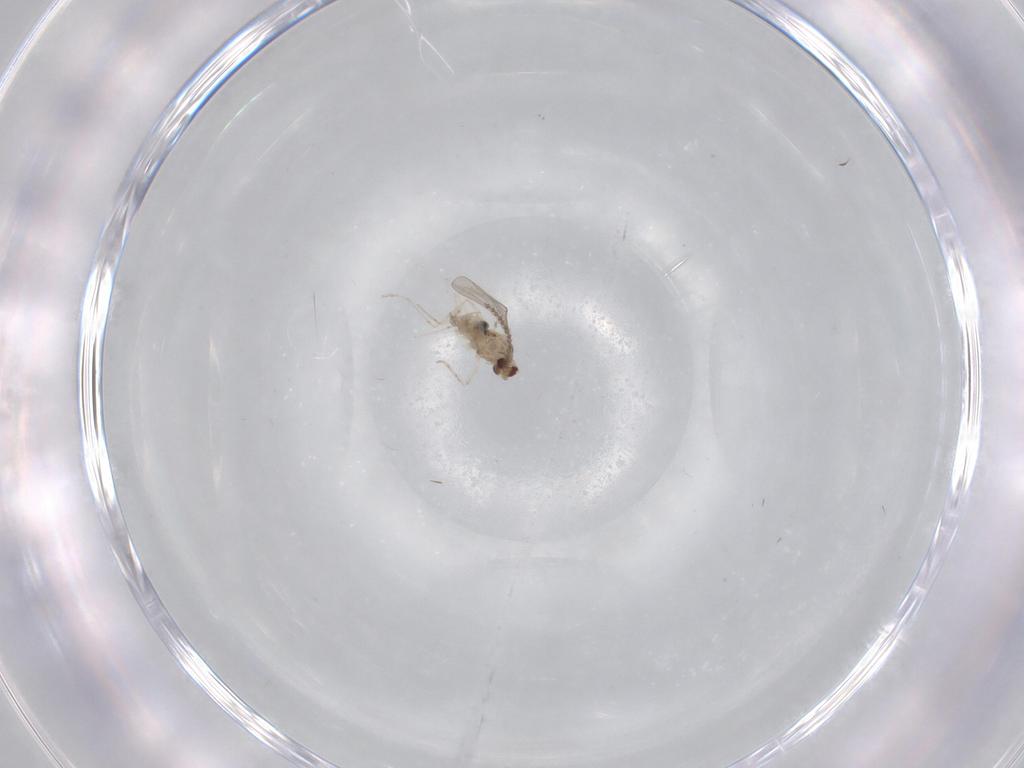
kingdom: Animalia
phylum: Arthropoda
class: Insecta
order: Diptera
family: Cecidomyiidae
